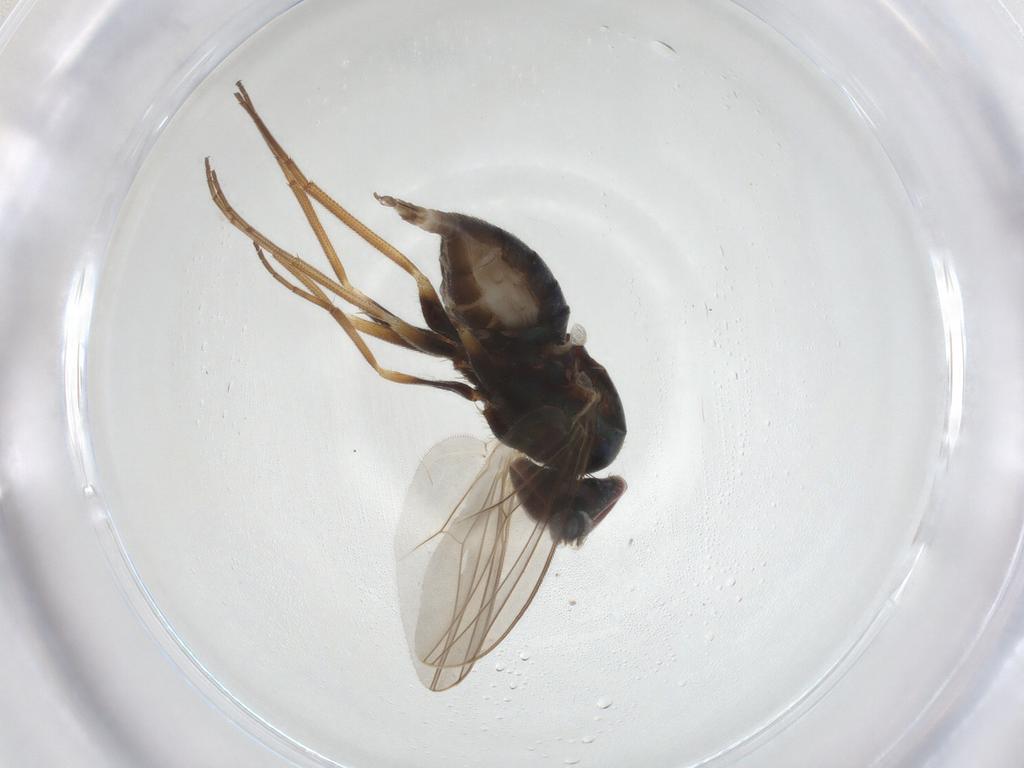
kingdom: Animalia
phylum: Arthropoda
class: Insecta
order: Diptera
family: Dolichopodidae
